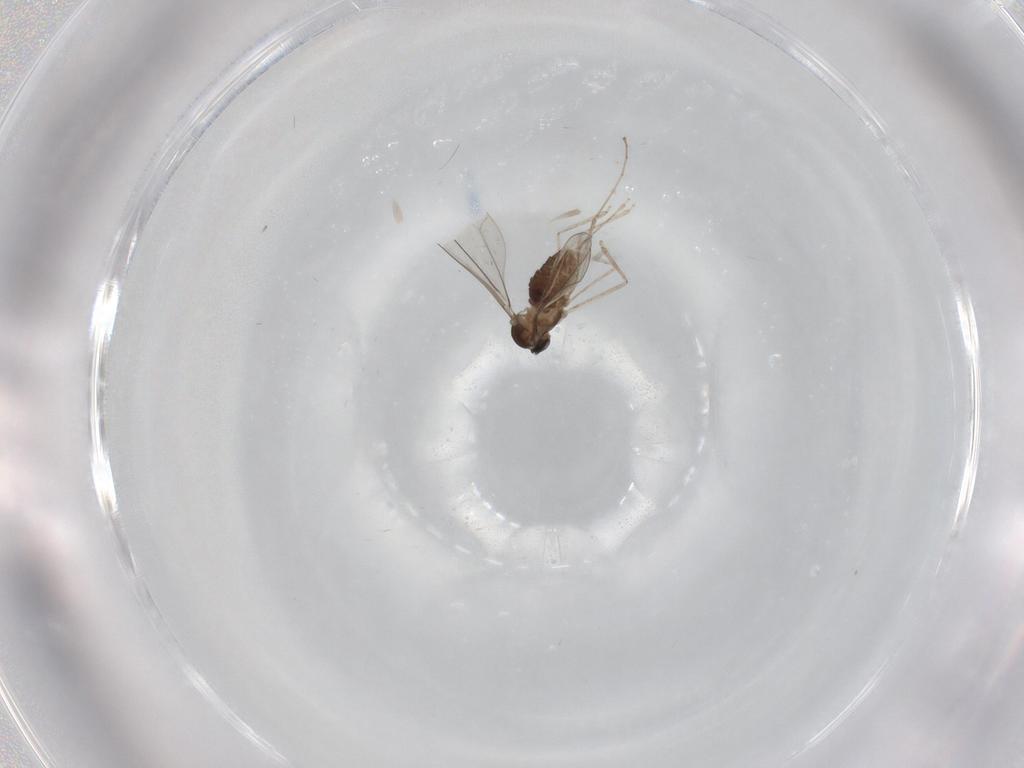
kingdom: Animalia
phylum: Arthropoda
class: Insecta
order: Diptera
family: Cecidomyiidae
